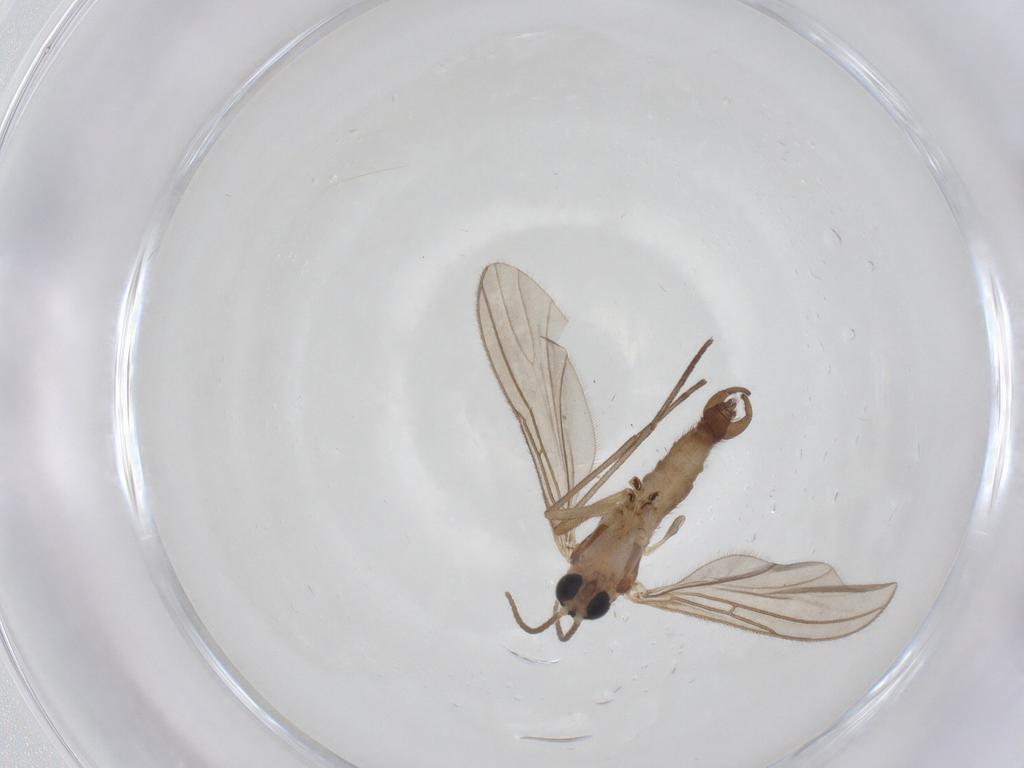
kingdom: Animalia
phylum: Arthropoda
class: Insecta
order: Diptera
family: Sciaridae
